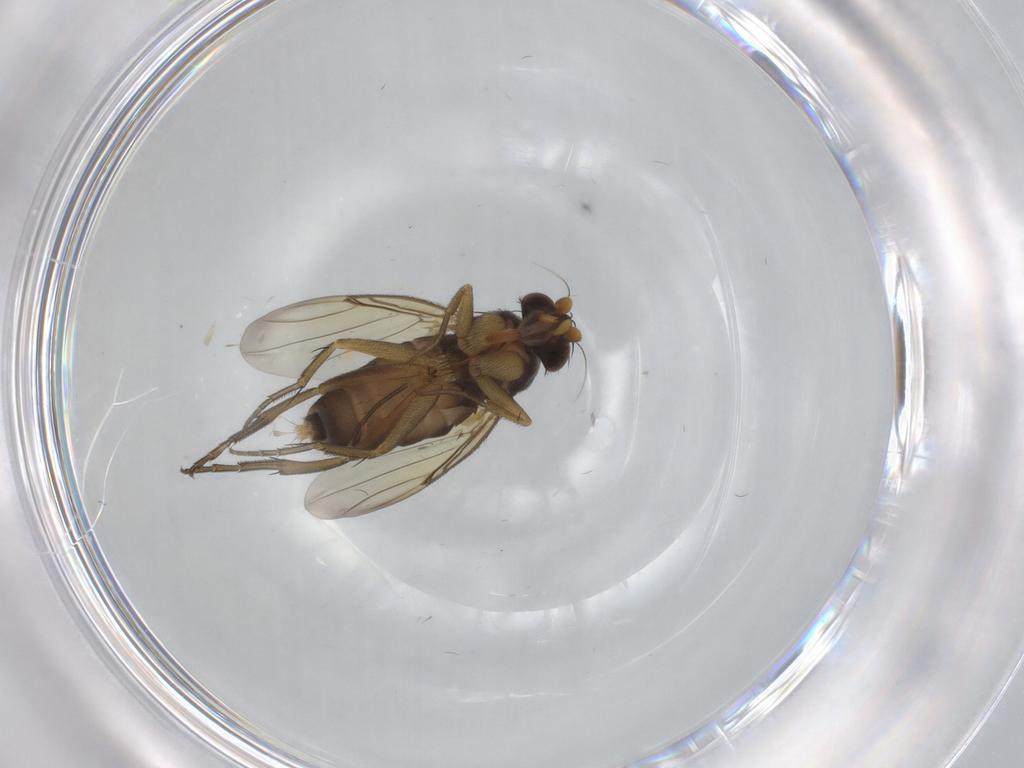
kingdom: Animalia
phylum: Arthropoda
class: Insecta
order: Diptera
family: Phoridae
